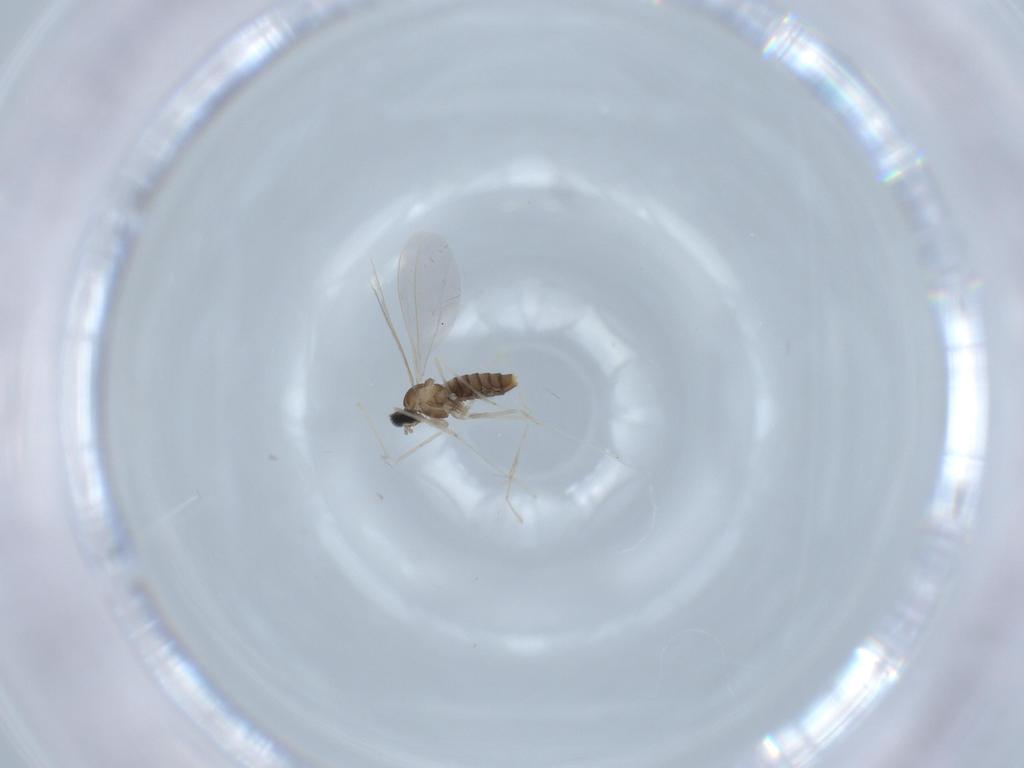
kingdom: Animalia
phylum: Arthropoda
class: Insecta
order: Diptera
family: Cecidomyiidae
